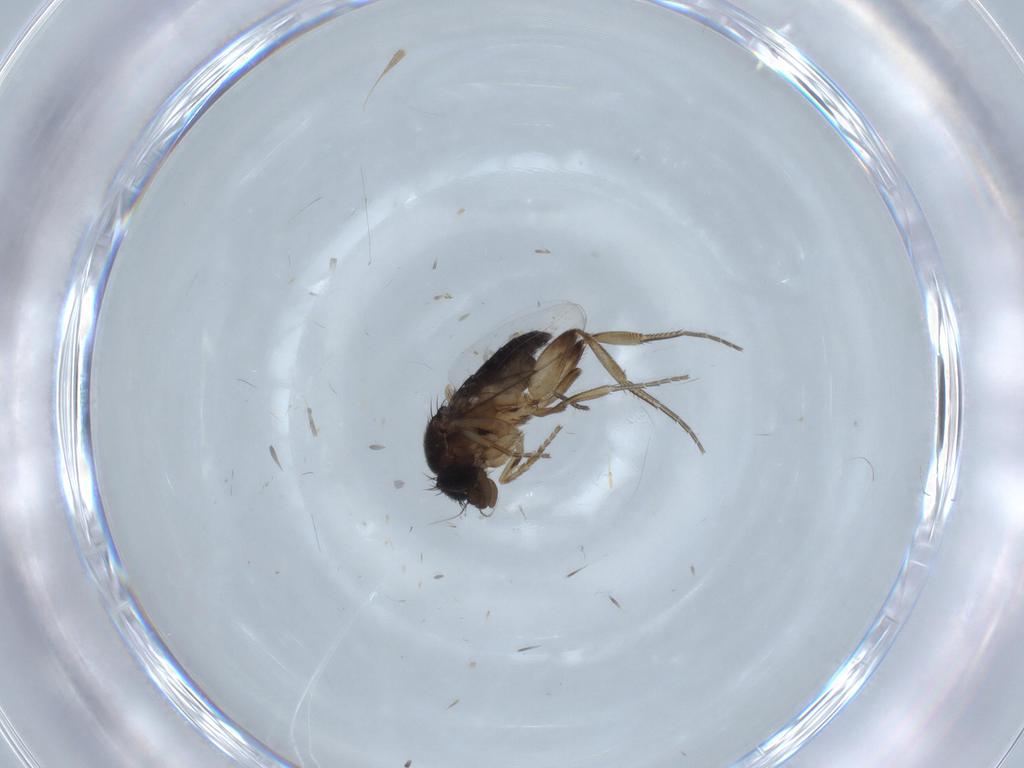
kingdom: Animalia
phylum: Arthropoda
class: Insecta
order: Diptera
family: Phoridae
